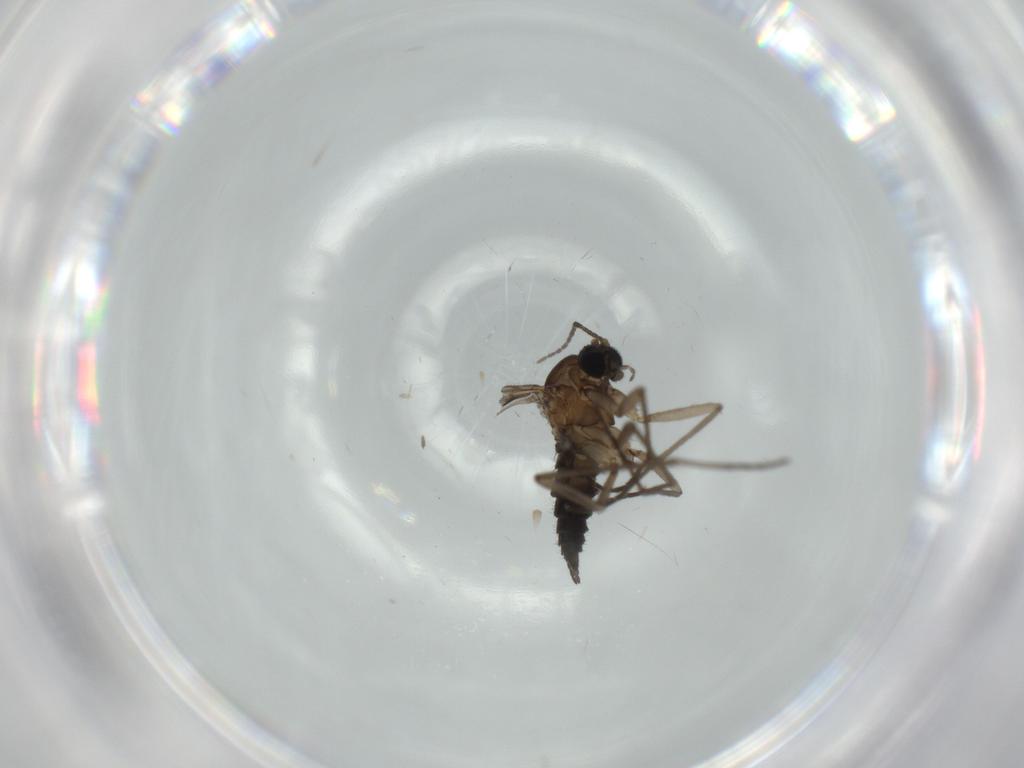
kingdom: Animalia
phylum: Arthropoda
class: Insecta
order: Diptera
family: Sciaridae
